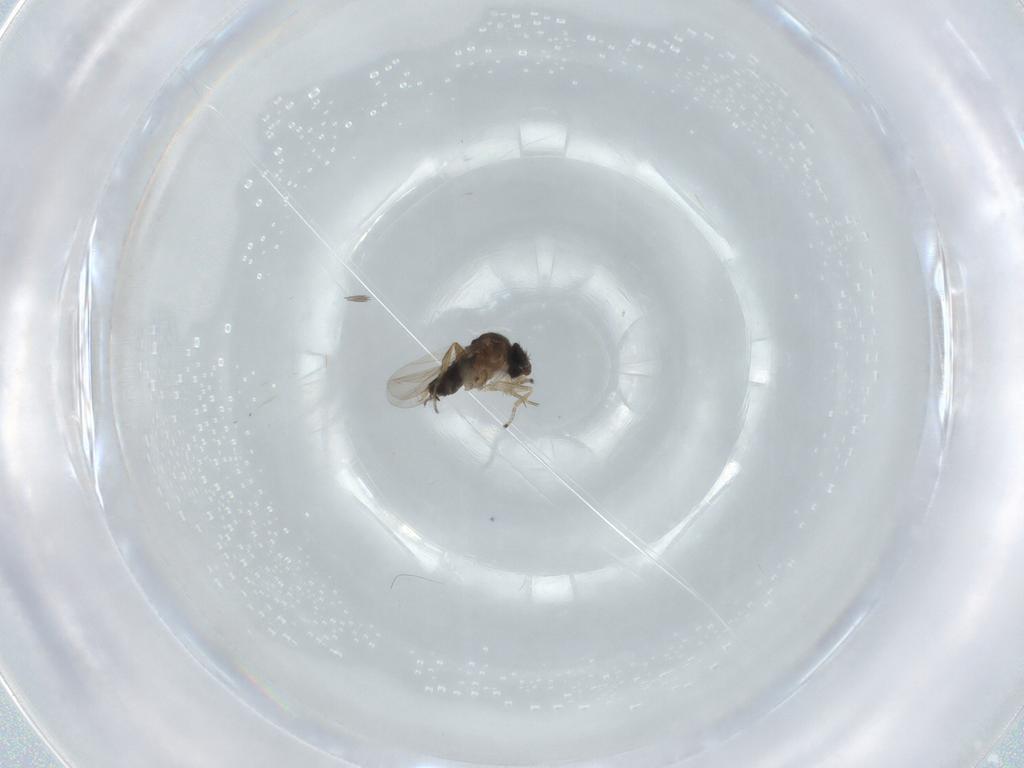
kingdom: Animalia
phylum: Arthropoda
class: Insecta
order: Diptera
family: Phoridae
